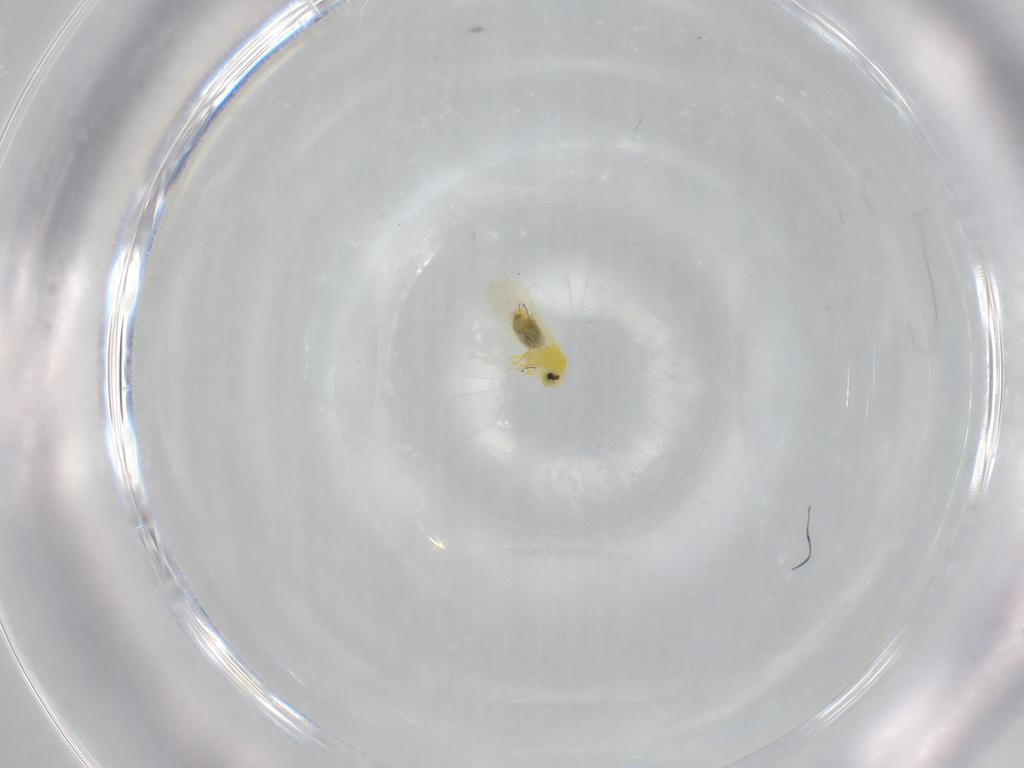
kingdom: Animalia
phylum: Arthropoda
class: Insecta
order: Hemiptera
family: Aleyrodidae
